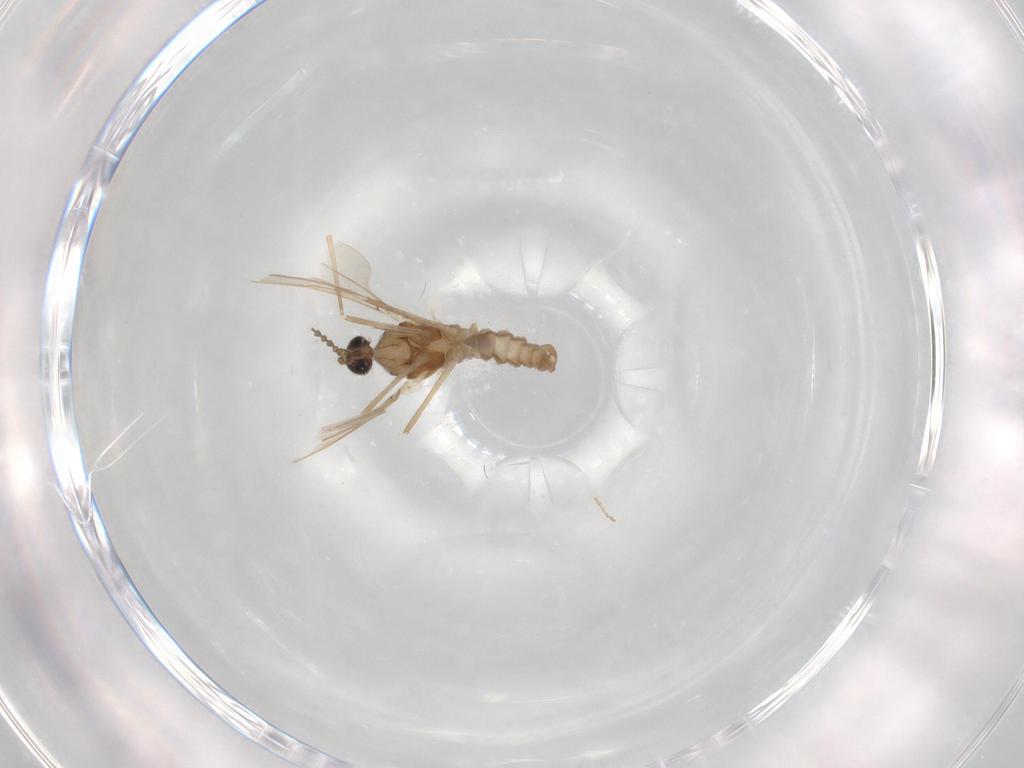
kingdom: Animalia
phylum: Arthropoda
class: Insecta
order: Diptera
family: Cecidomyiidae
